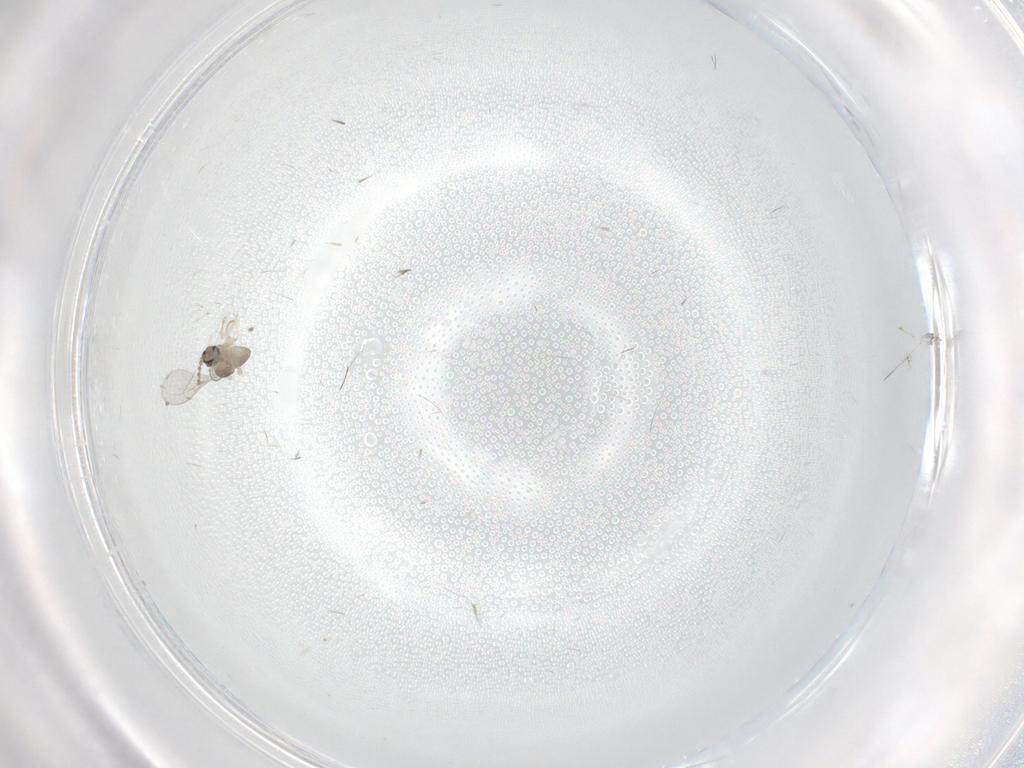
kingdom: Animalia
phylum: Arthropoda
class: Insecta
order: Diptera
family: Cecidomyiidae
